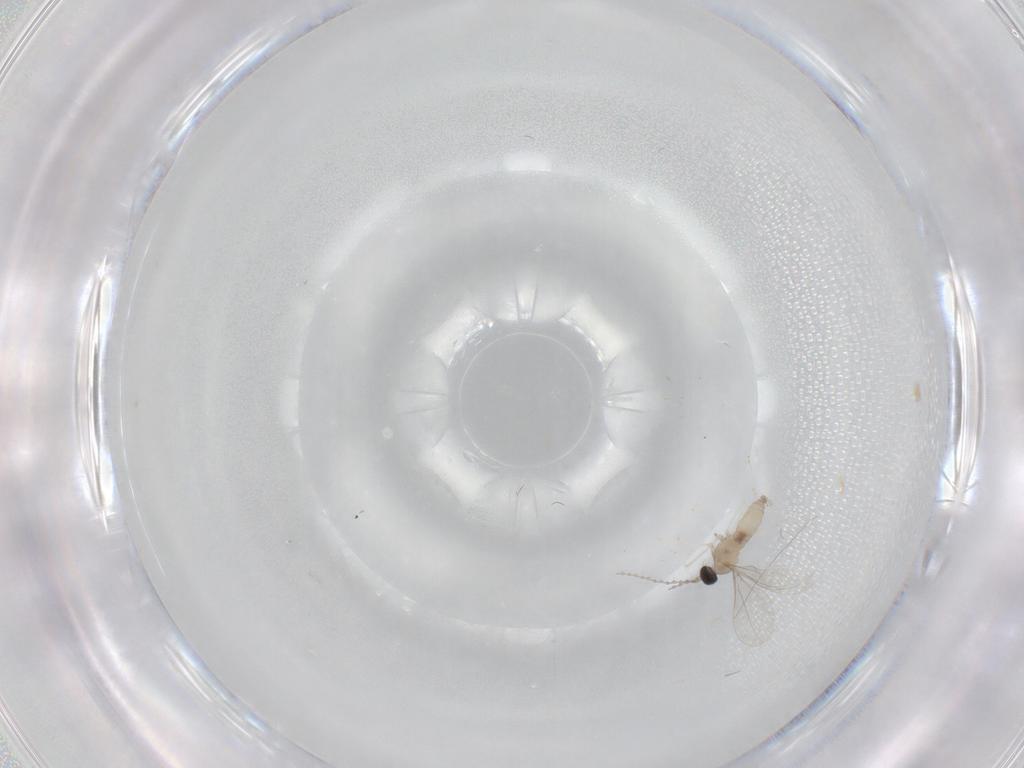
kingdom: Animalia
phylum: Arthropoda
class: Insecta
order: Diptera
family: Cecidomyiidae
